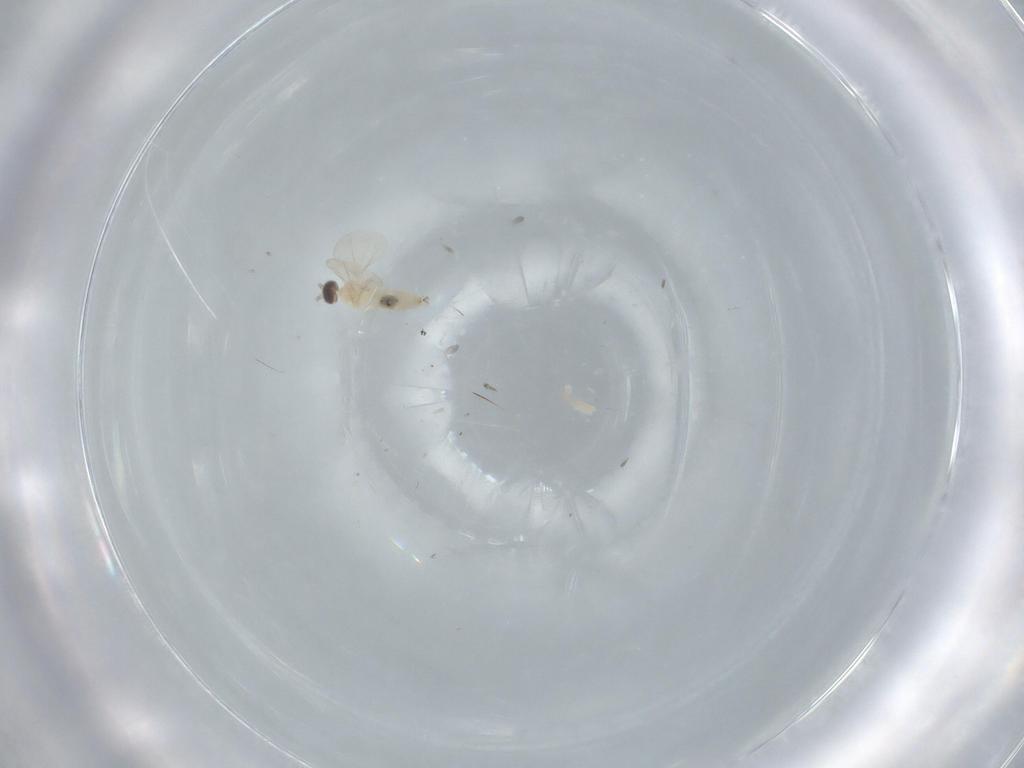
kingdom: Animalia
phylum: Arthropoda
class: Insecta
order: Diptera
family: Cecidomyiidae
